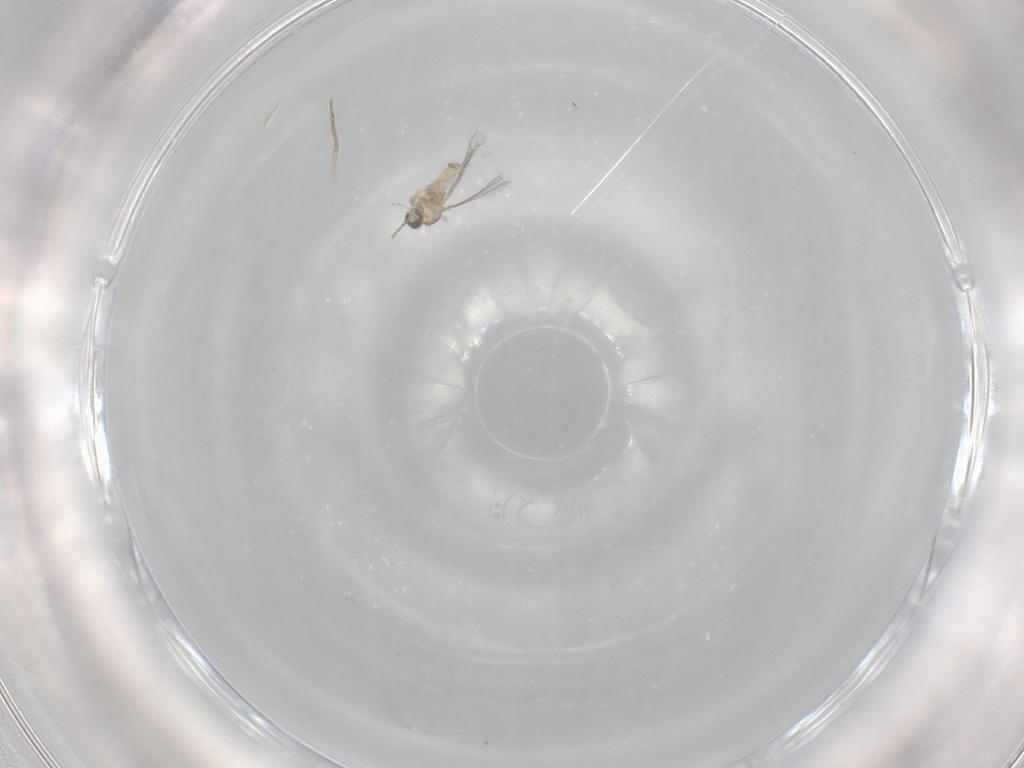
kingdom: Animalia
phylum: Arthropoda
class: Insecta
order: Diptera
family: Cecidomyiidae
